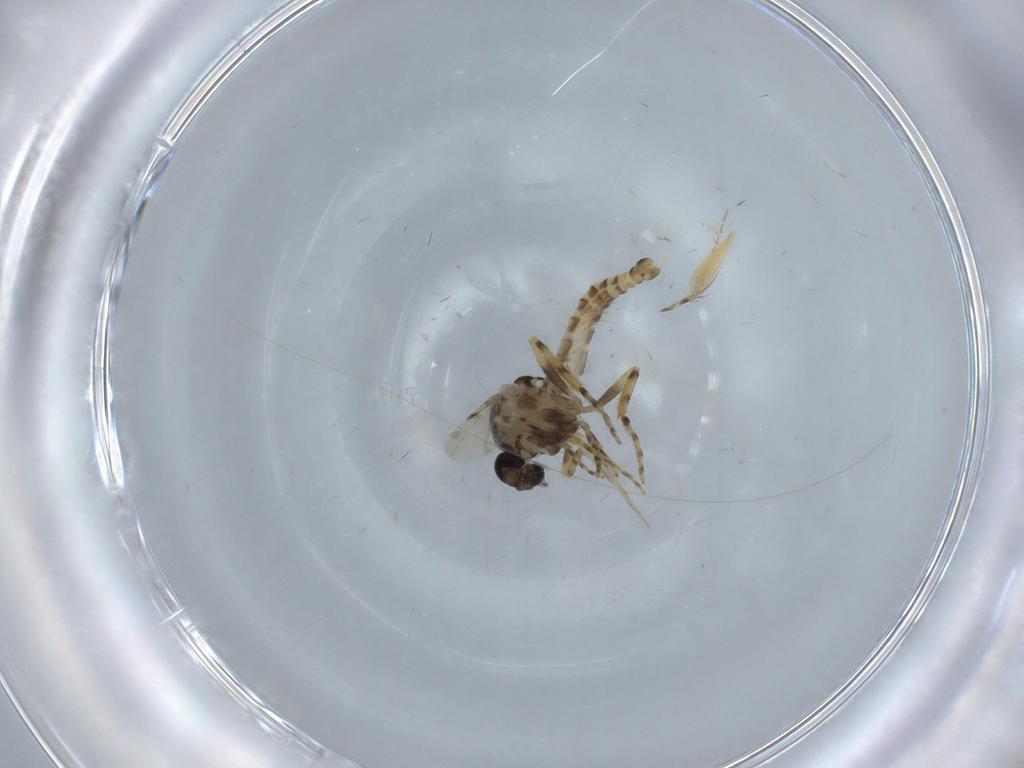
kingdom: Animalia
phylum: Arthropoda
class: Insecta
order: Diptera
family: Ceratopogonidae
